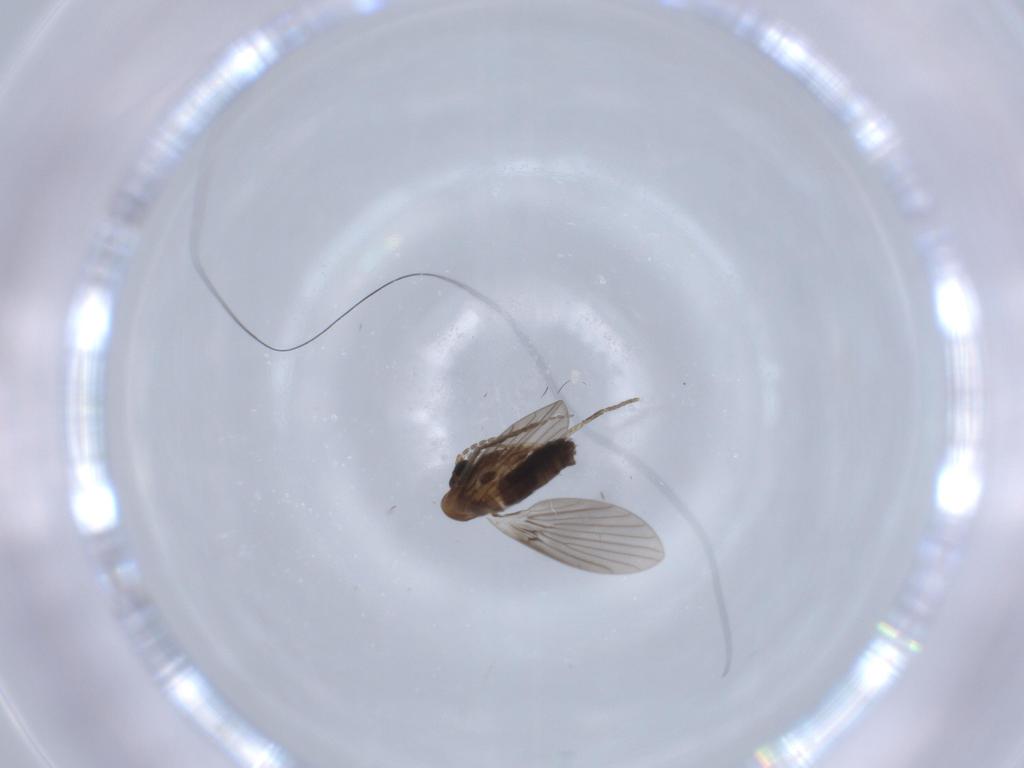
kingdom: Animalia
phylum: Arthropoda
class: Insecta
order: Diptera
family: Psychodidae
